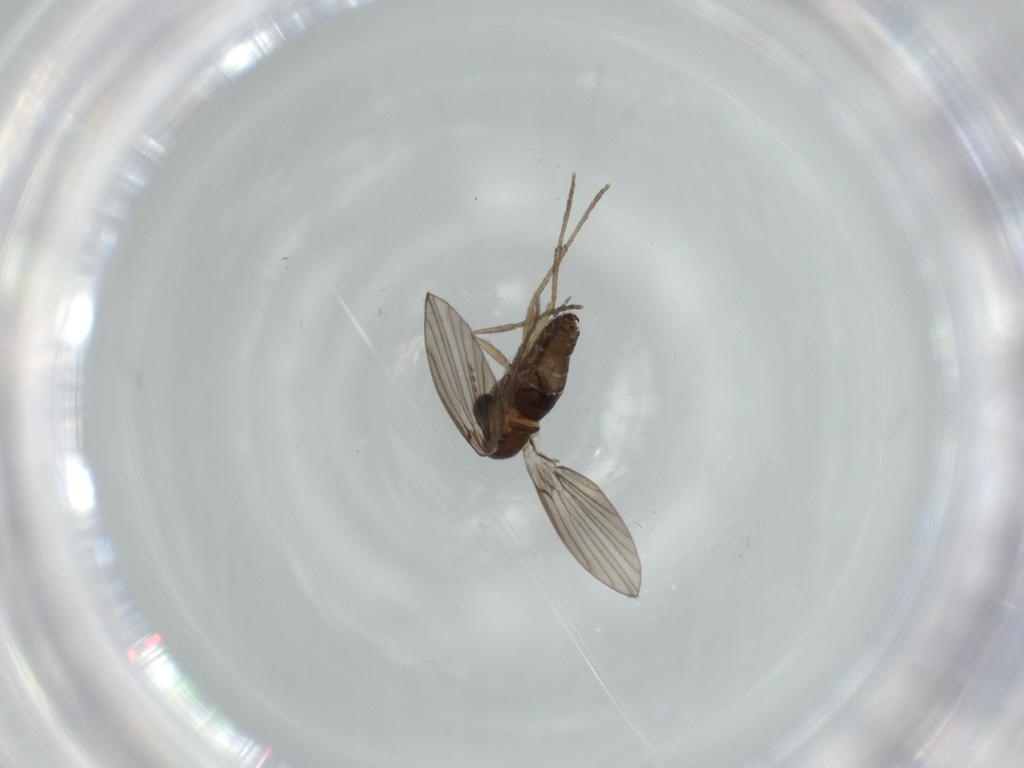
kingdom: Animalia
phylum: Arthropoda
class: Insecta
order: Diptera
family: Psychodidae
